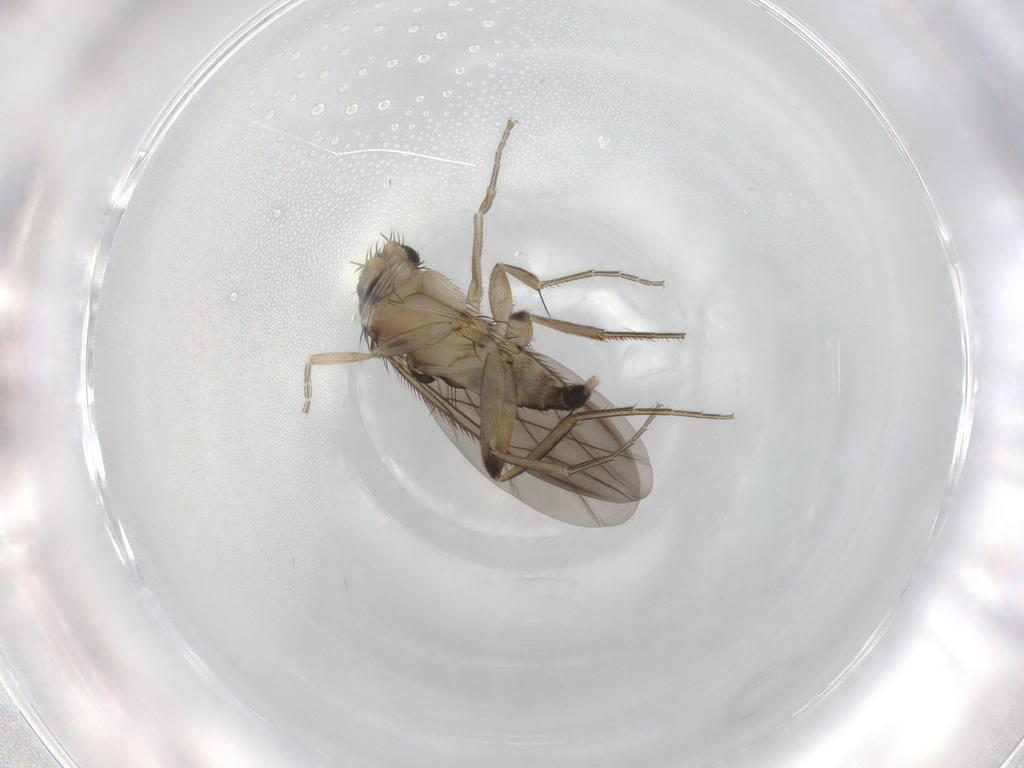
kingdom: Animalia
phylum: Arthropoda
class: Insecta
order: Diptera
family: Phoridae
